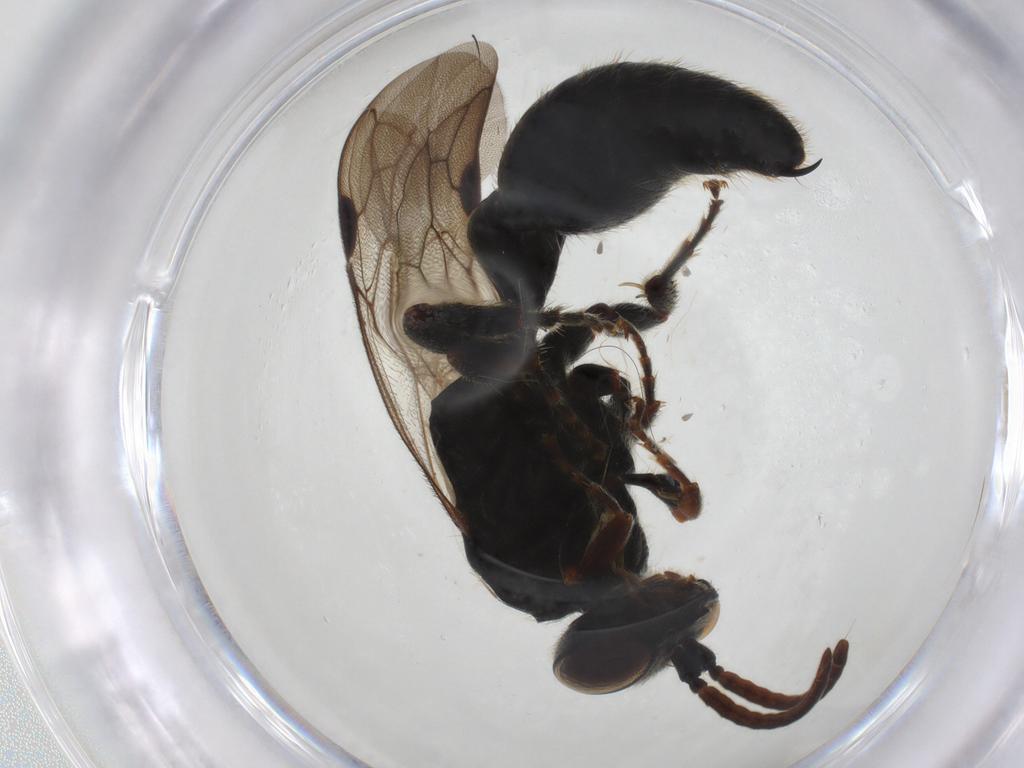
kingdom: Animalia
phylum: Arthropoda
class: Insecta
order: Hymenoptera
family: Tiphiidae
